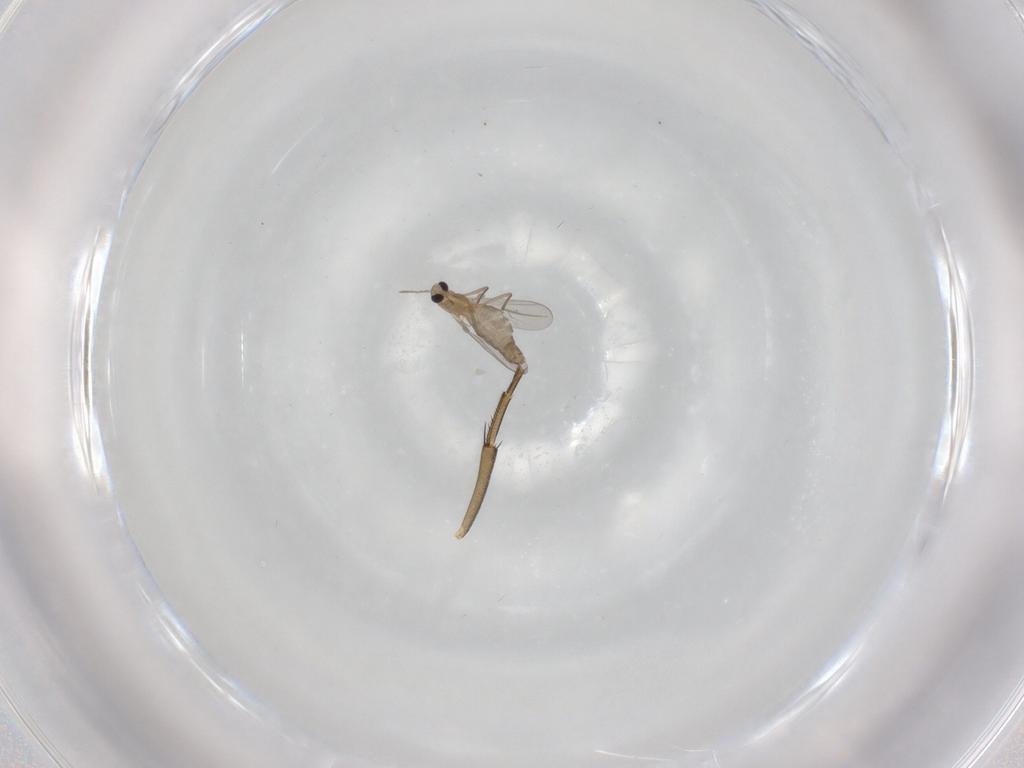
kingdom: Animalia
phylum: Arthropoda
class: Insecta
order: Diptera
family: Chironomidae
